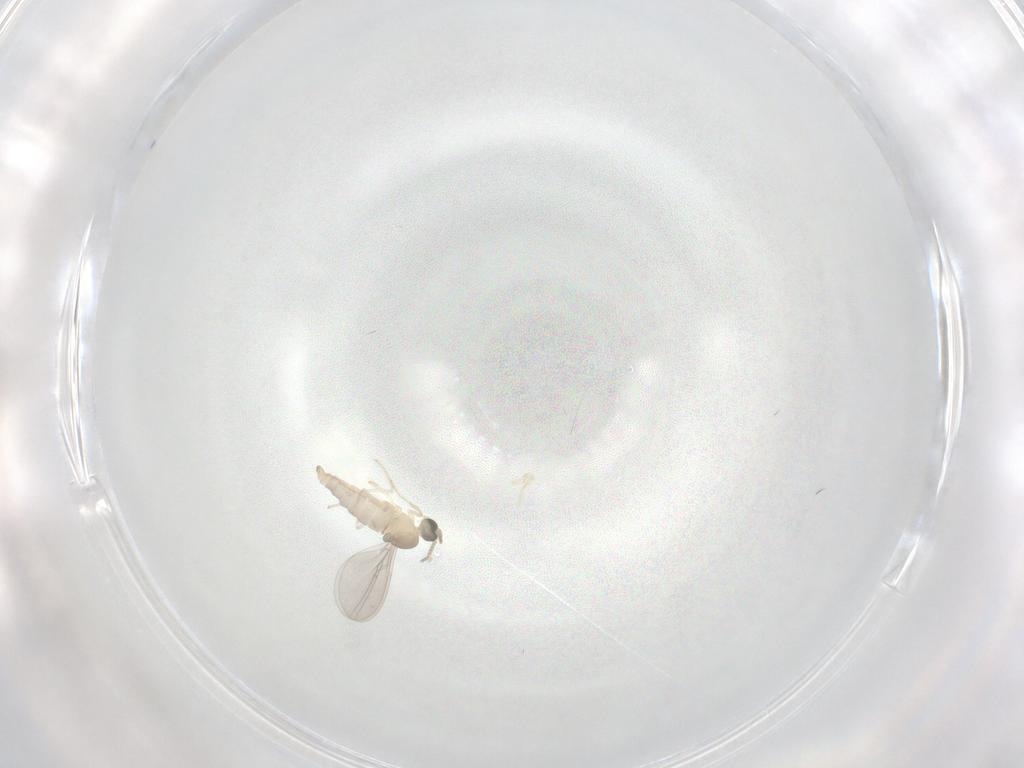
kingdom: Animalia
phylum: Arthropoda
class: Insecta
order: Diptera
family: Cecidomyiidae
